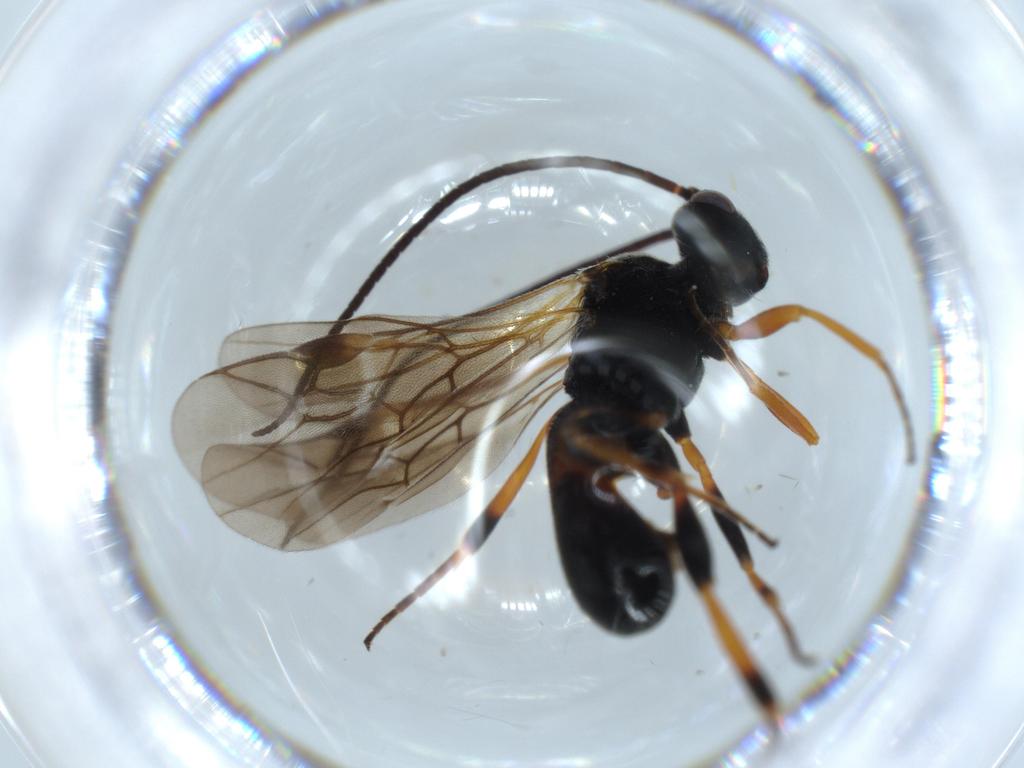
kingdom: Animalia
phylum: Arthropoda
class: Insecta
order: Hymenoptera
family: Braconidae
